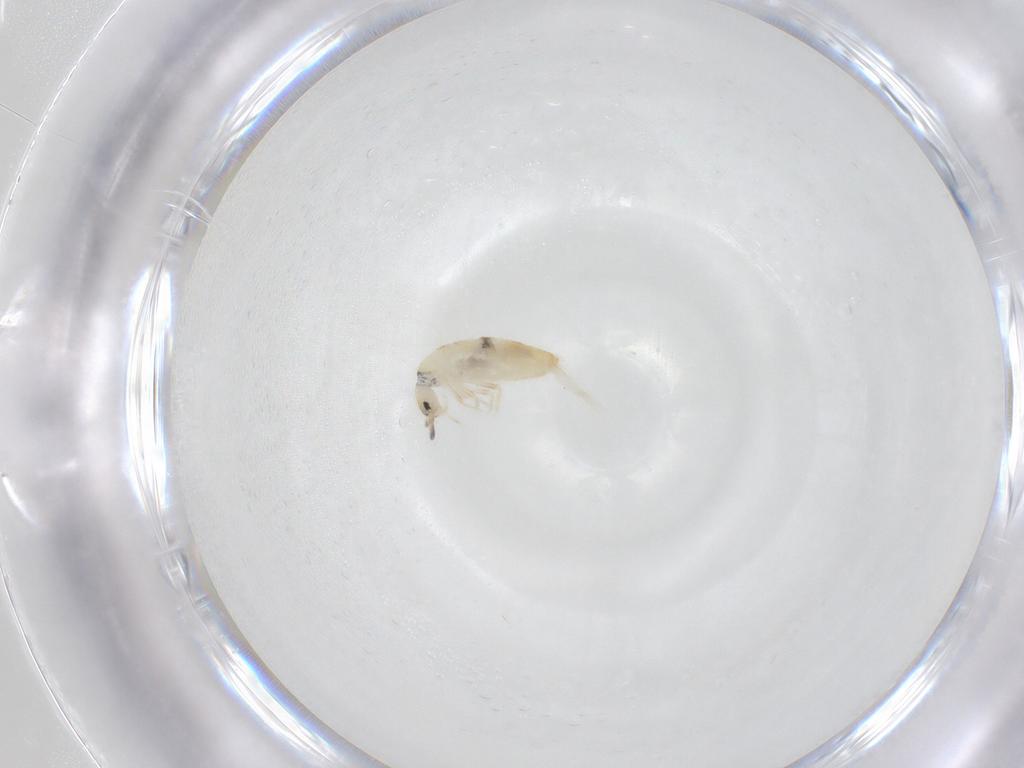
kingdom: Animalia
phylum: Arthropoda
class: Collembola
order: Entomobryomorpha
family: Entomobryidae
